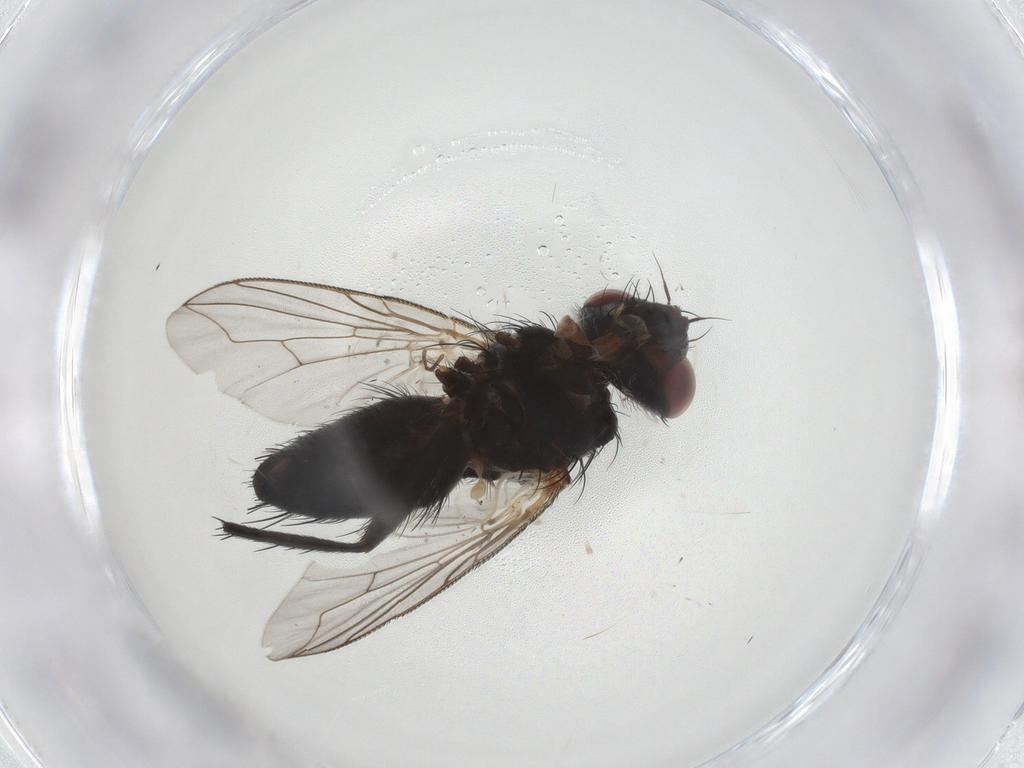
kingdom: Animalia
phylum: Arthropoda
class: Insecta
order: Diptera
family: Tachinidae
